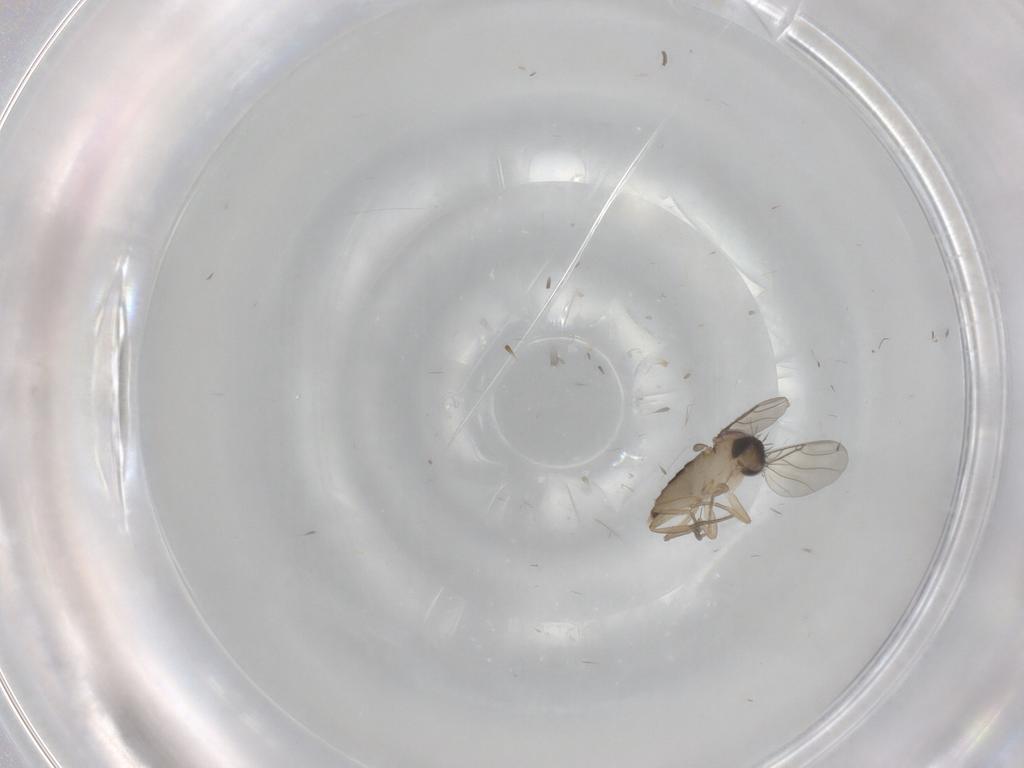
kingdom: Animalia
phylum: Arthropoda
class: Insecta
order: Diptera
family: Phoridae
